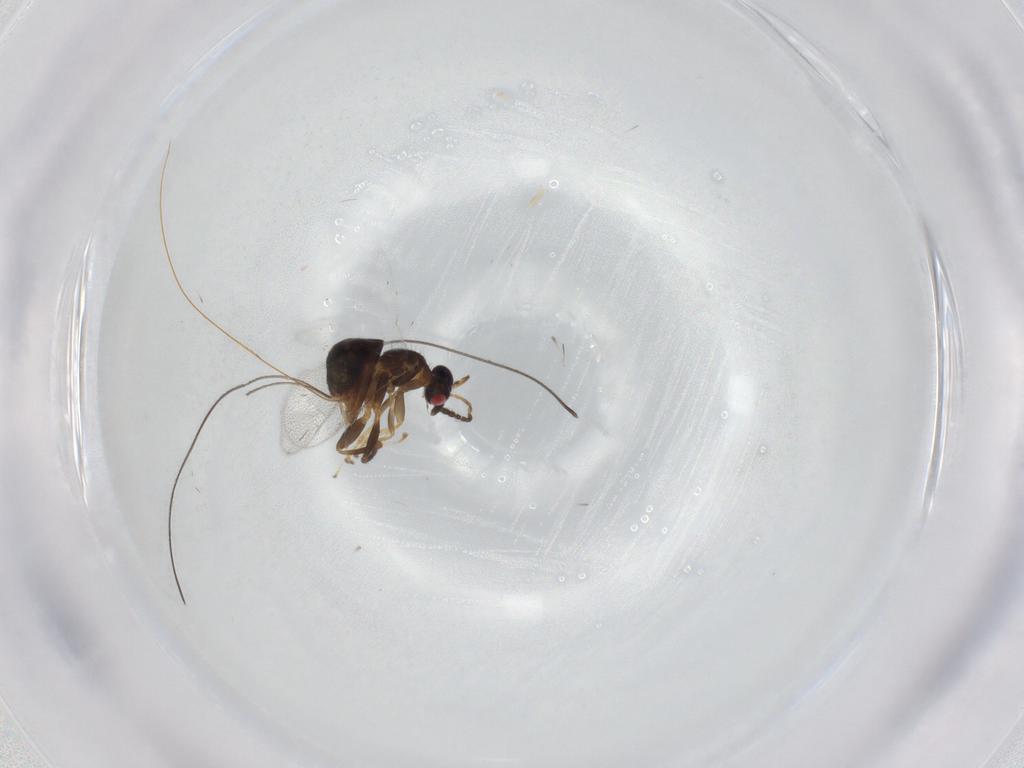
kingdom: Animalia
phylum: Arthropoda
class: Insecta
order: Hymenoptera
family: Torymidae
